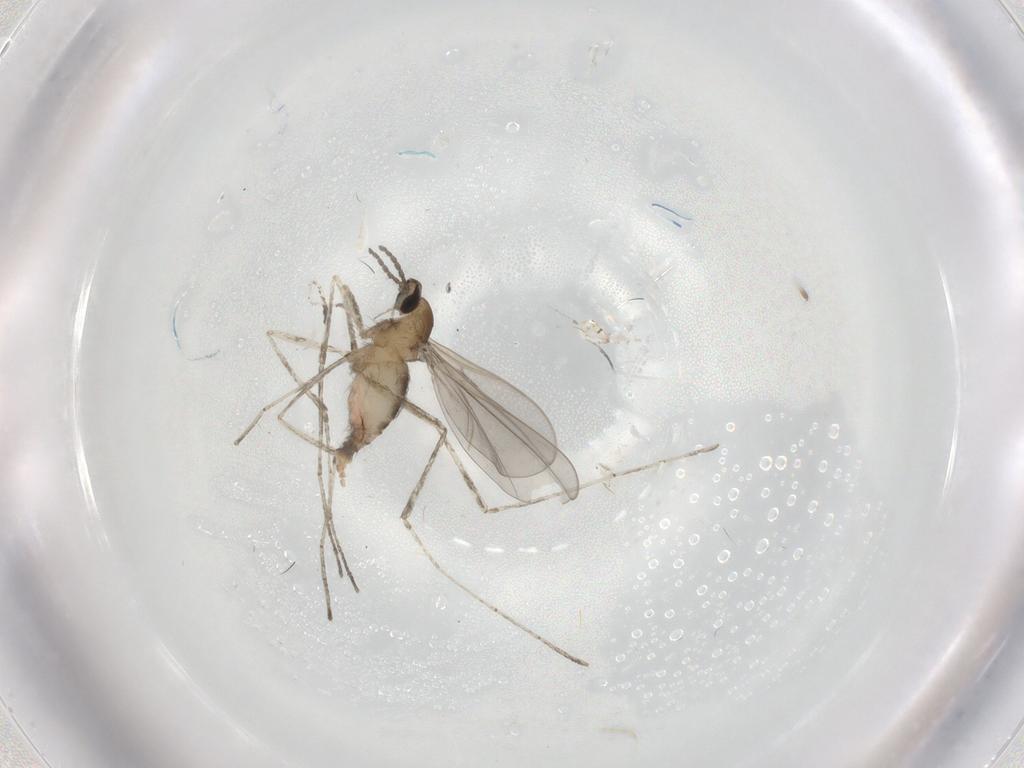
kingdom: Animalia
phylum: Arthropoda
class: Insecta
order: Diptera
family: Cecidomyiidae
